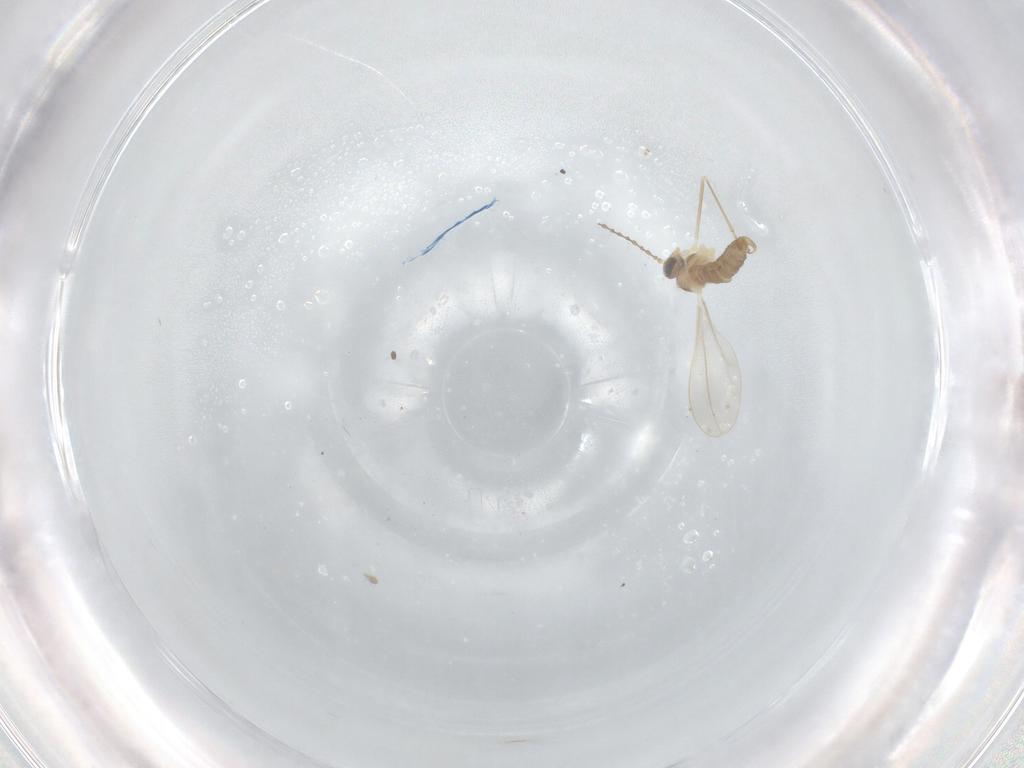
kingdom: Animalia
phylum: Arthropoda
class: Insecta
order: Diptera
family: Cecidomyiidae
